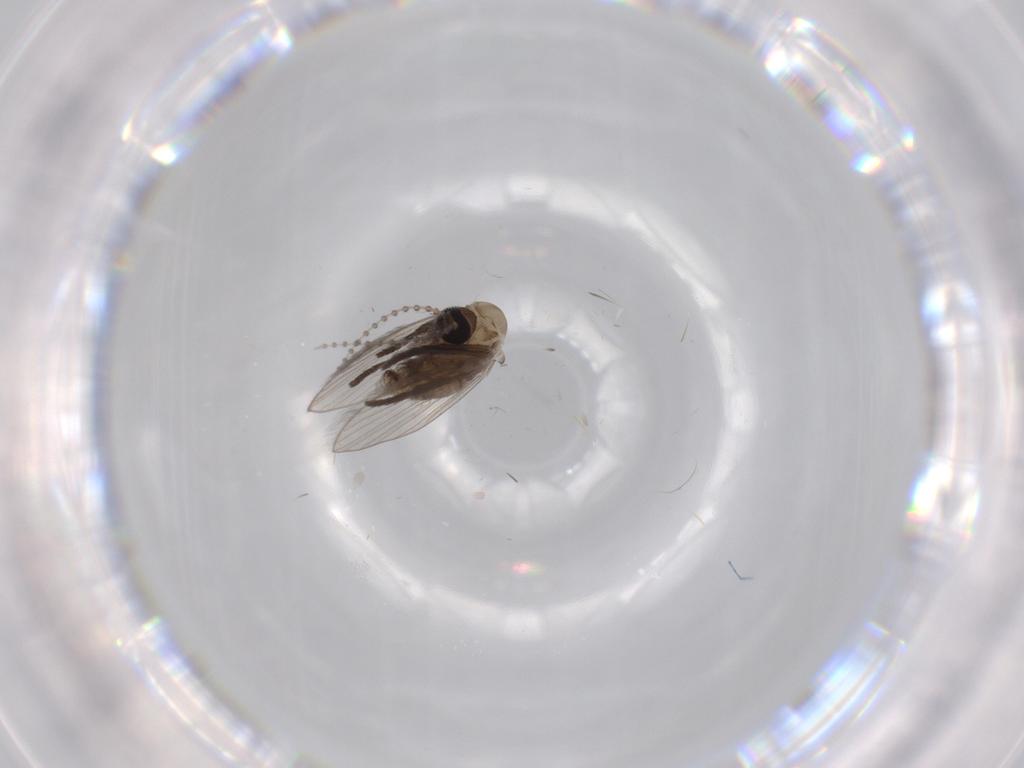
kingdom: Animalia
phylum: Arthropoda
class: Insecta
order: Diptera
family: Psychodidae
